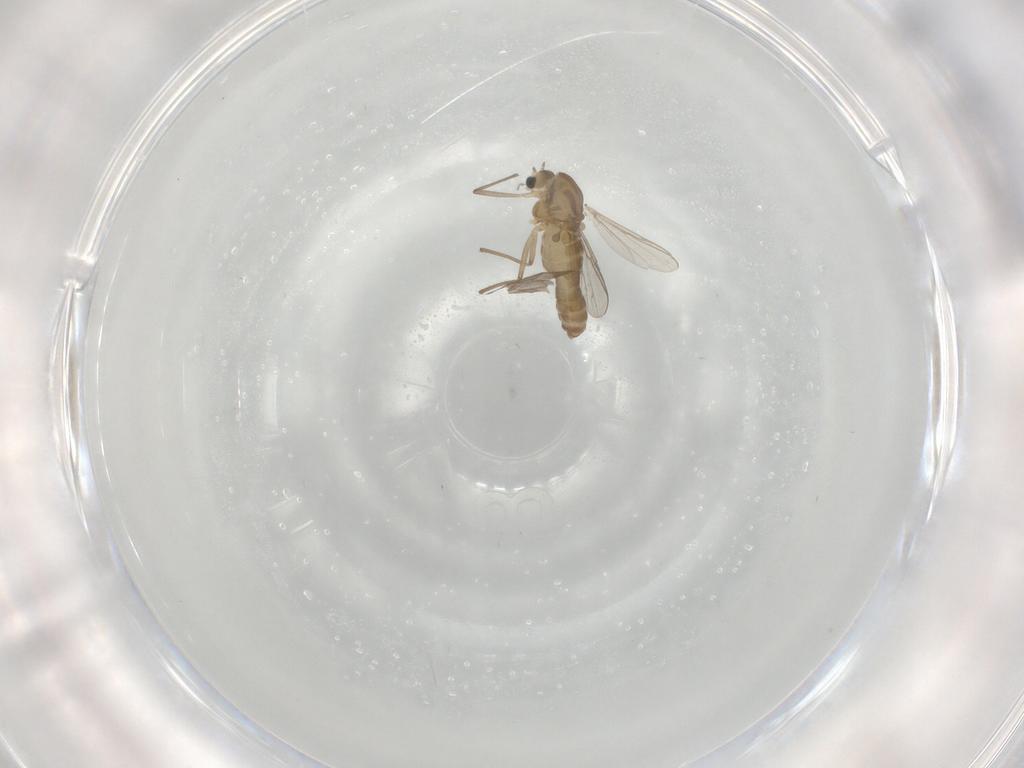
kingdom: Animalia
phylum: Arthropoda
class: Insecta
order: Diptera
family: Chironomidae
